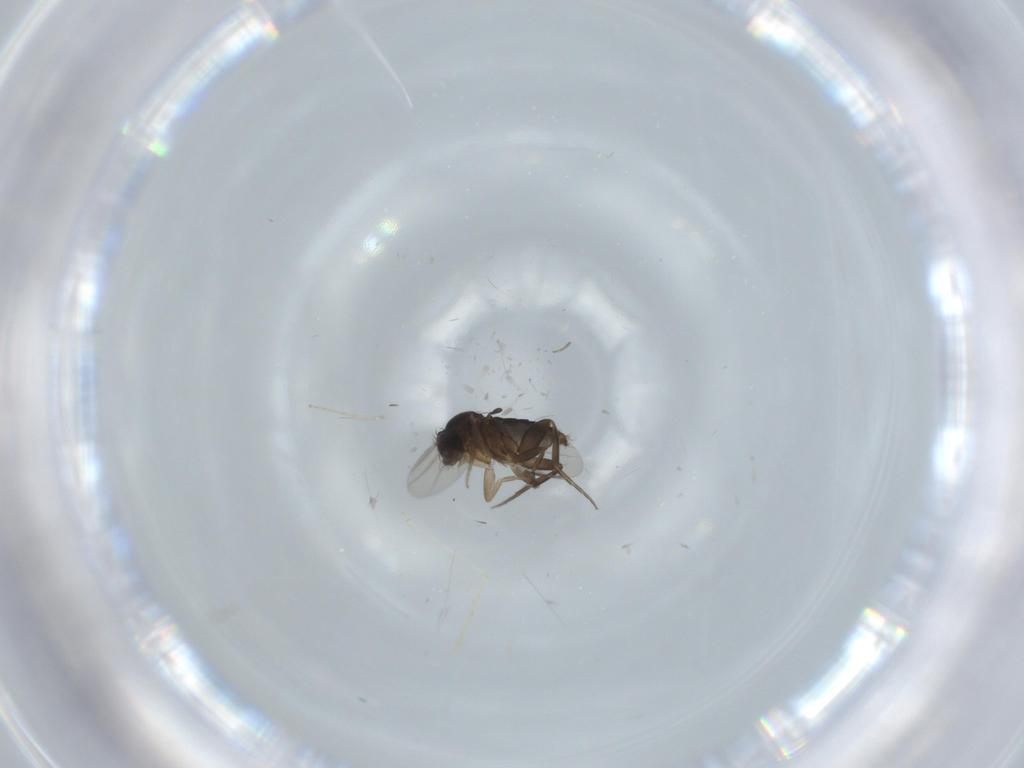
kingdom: Animalia
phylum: Arthropoda
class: Insecta
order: Diptera
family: Phoridae
